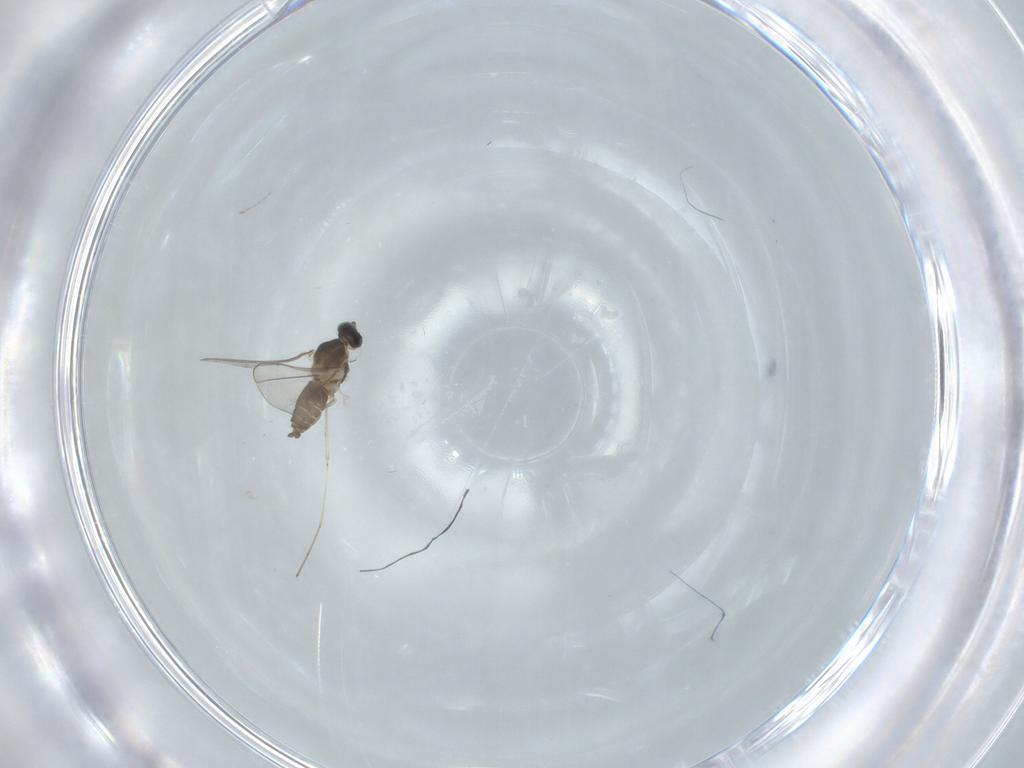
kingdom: Animalia
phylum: Arthropoda
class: Insecta
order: Diptera
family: Cecidomyiidae
